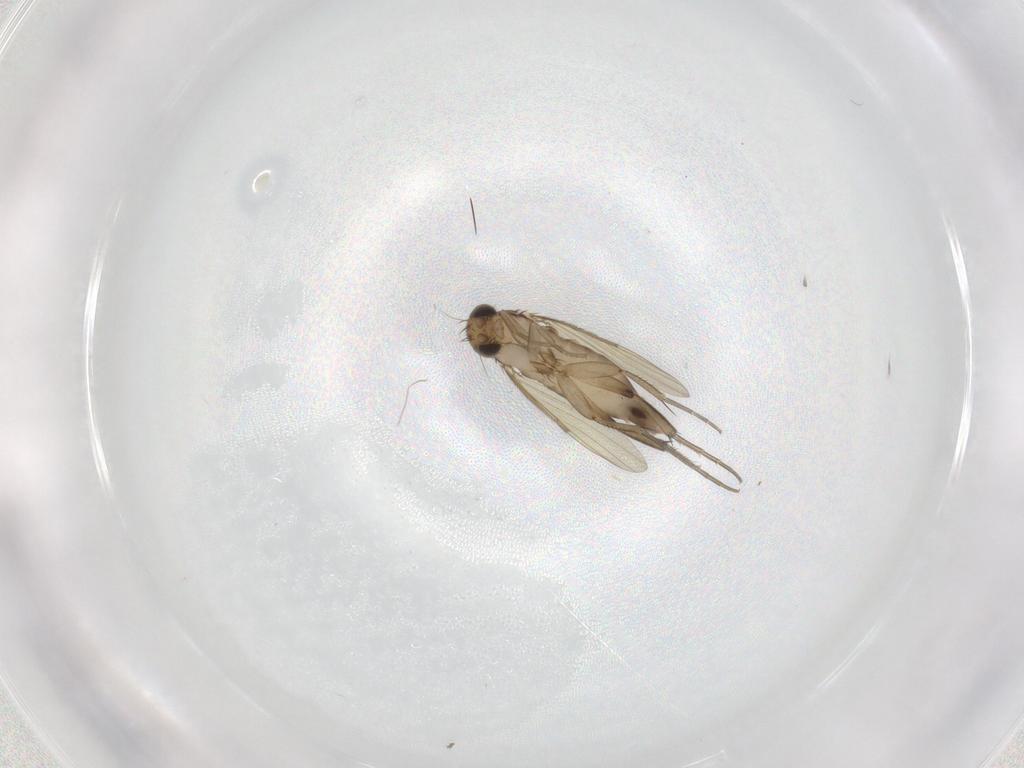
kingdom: Animalia
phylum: Arthropoda
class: Insecta
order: Diptera
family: Phoridae
